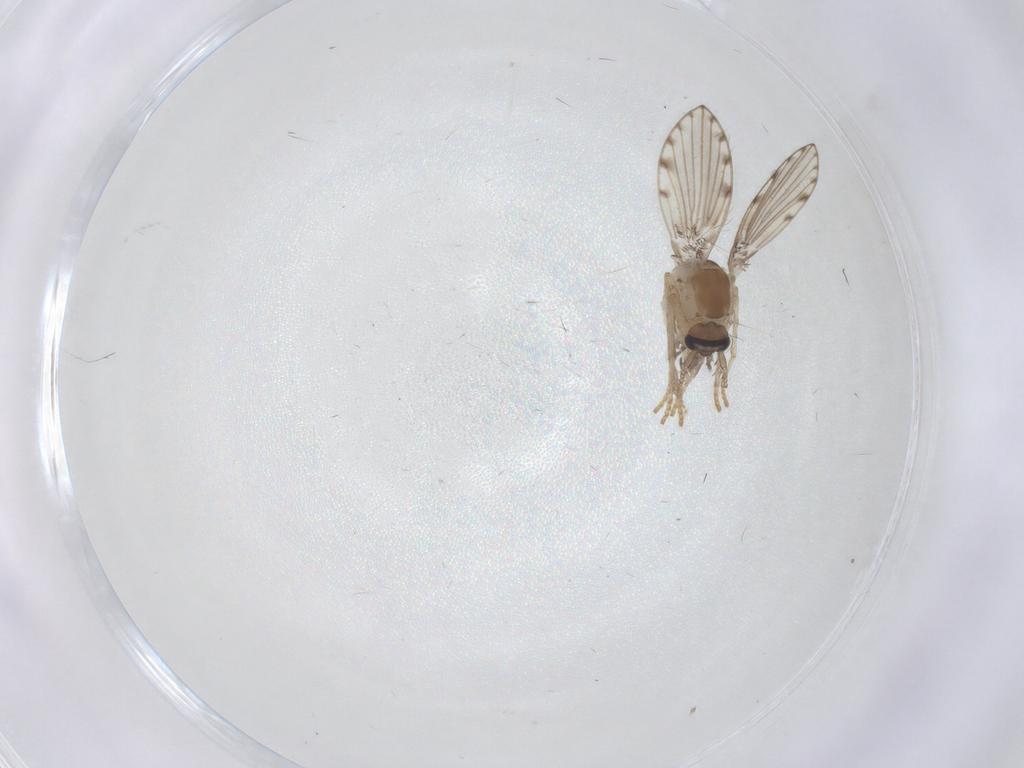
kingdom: Animalia
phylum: Arthropoda
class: Insecta
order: Diptera
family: Psychodidae
